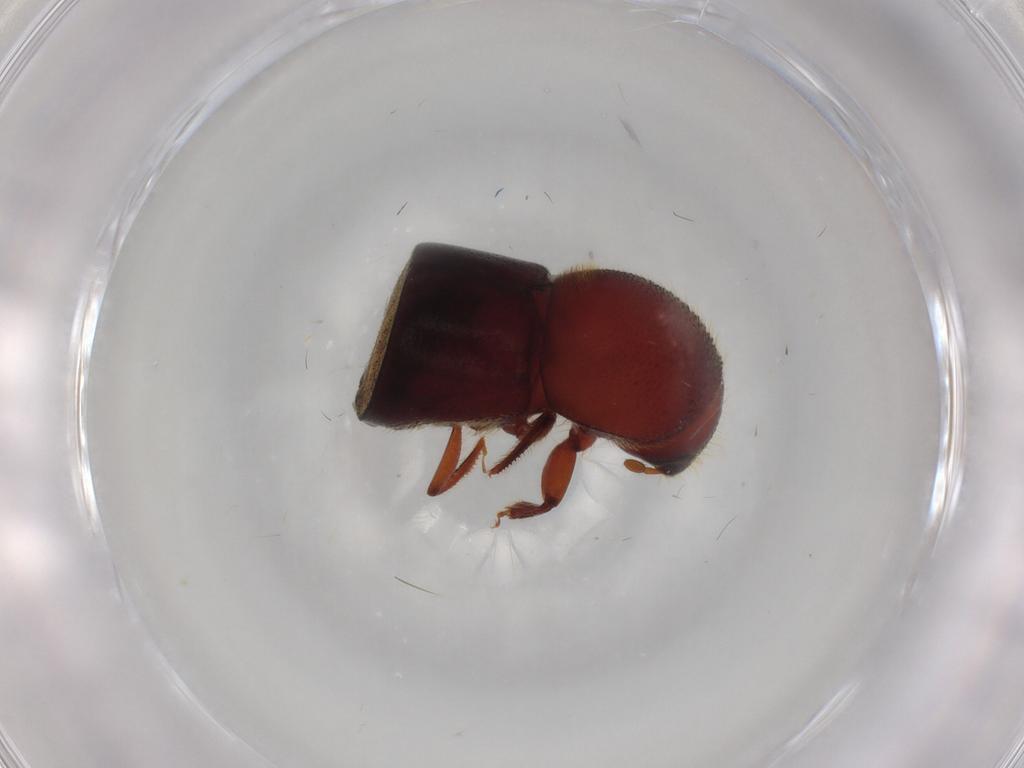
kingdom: Animalia
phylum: Arthropoda
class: Insecta
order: Coleoptera
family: Curculionidae
